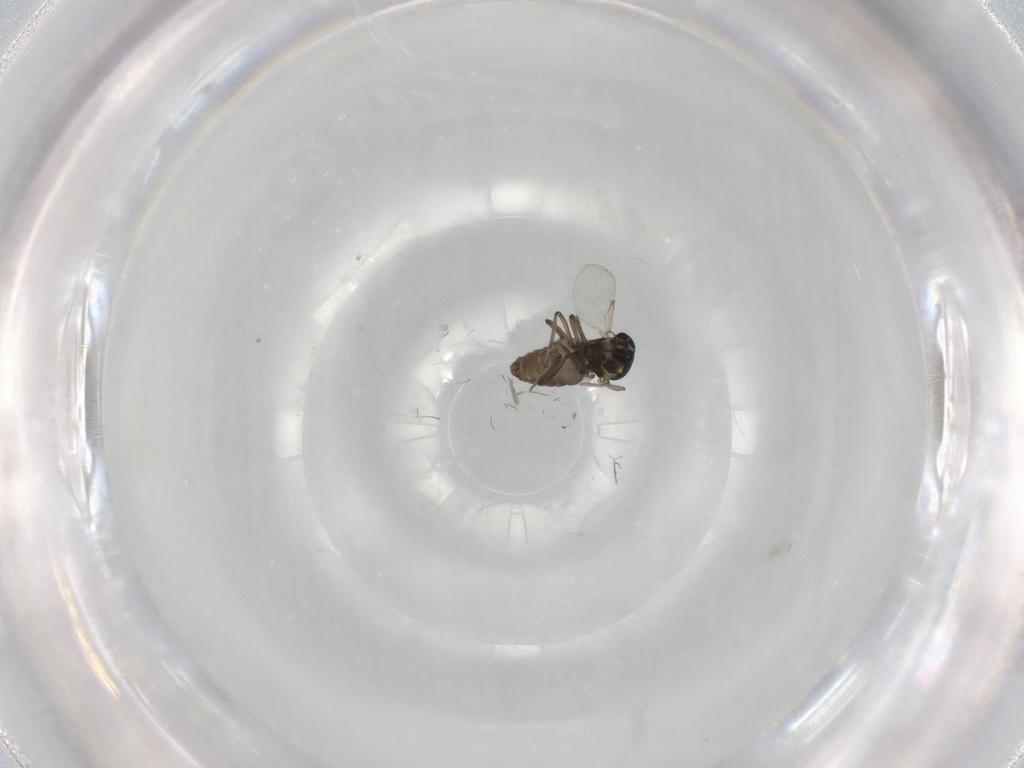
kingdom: Animalia
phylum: Arthropoda
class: Insecta
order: Diptera
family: Ceratopogonidae
